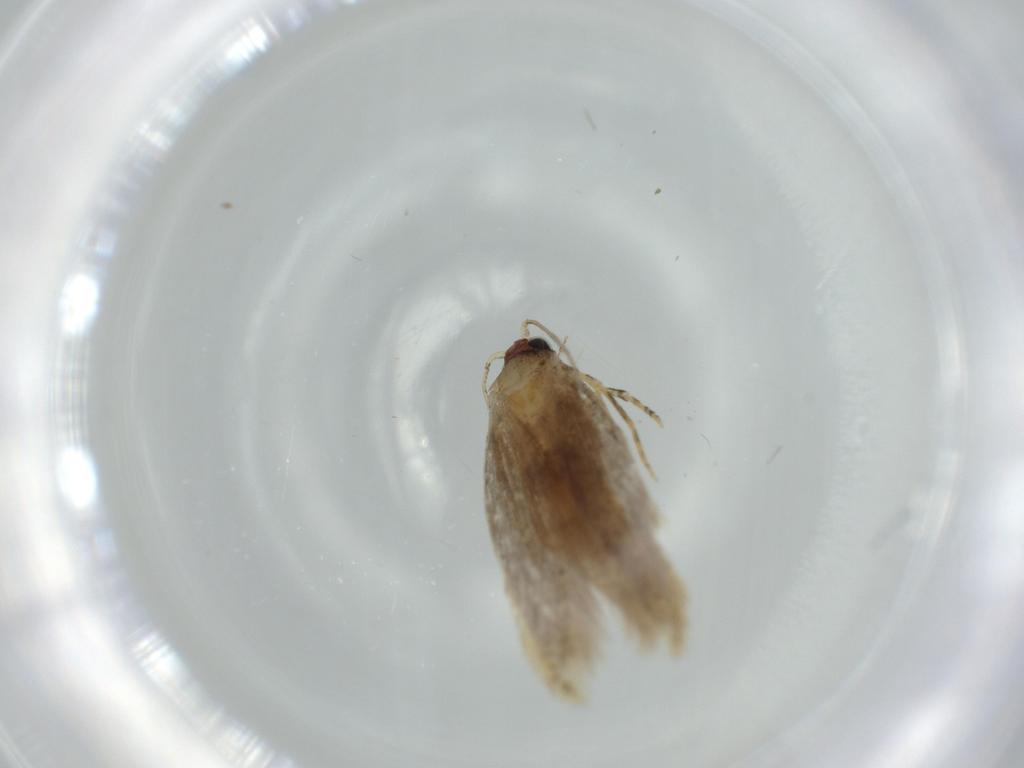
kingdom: Animalia
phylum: Arthropoda
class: Insecta
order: Lepidoptera
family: Tineidae
